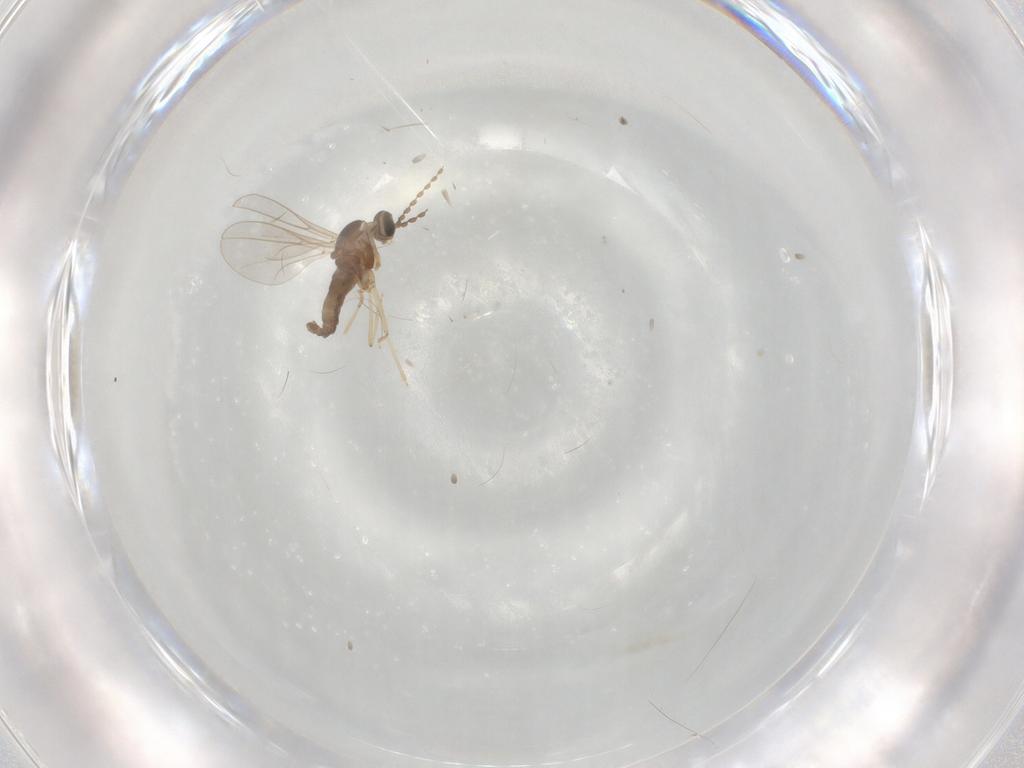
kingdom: Animalia
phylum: Arthropoda
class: Insecta
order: Diptera
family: Cecidomyiidae
